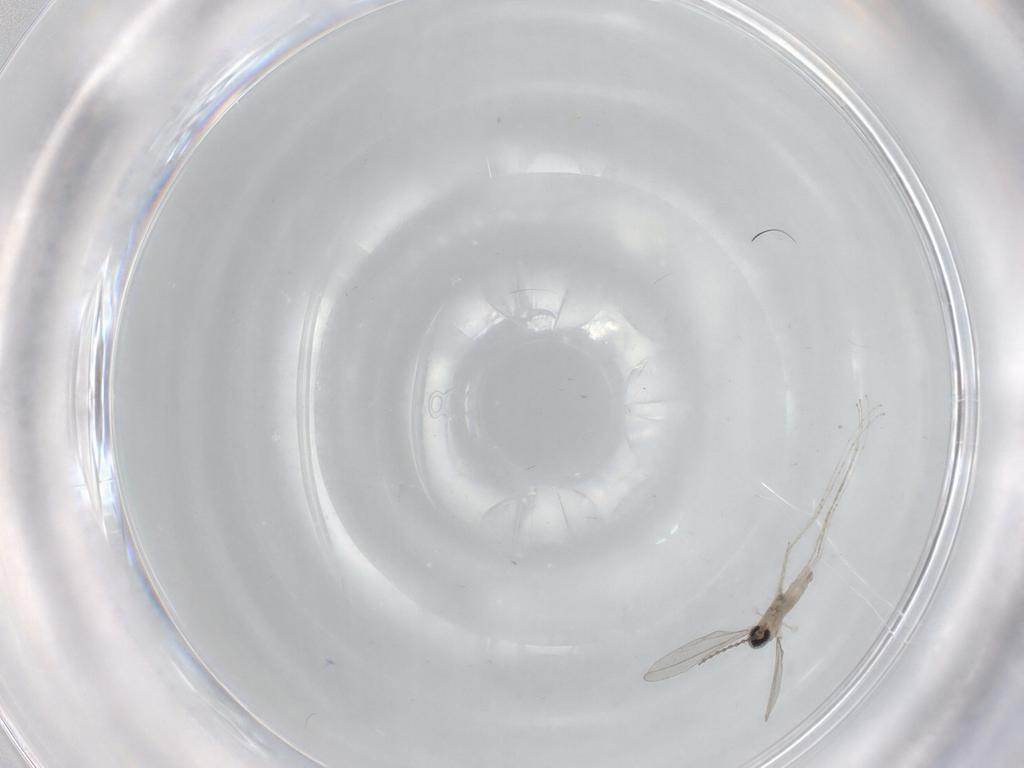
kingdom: Animalia
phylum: Arthropoda
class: Insecta
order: Diptera
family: Cecidomyiidae
